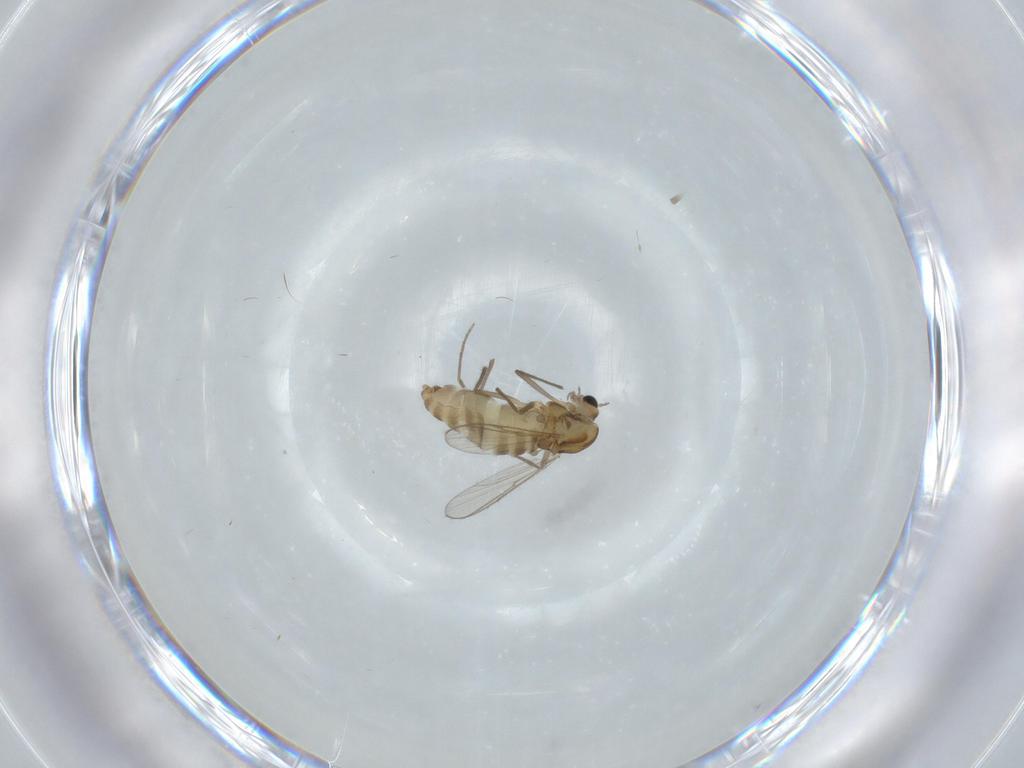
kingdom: Animalia
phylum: Arthropoda
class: Insecta
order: Diptera
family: Chironomidae
